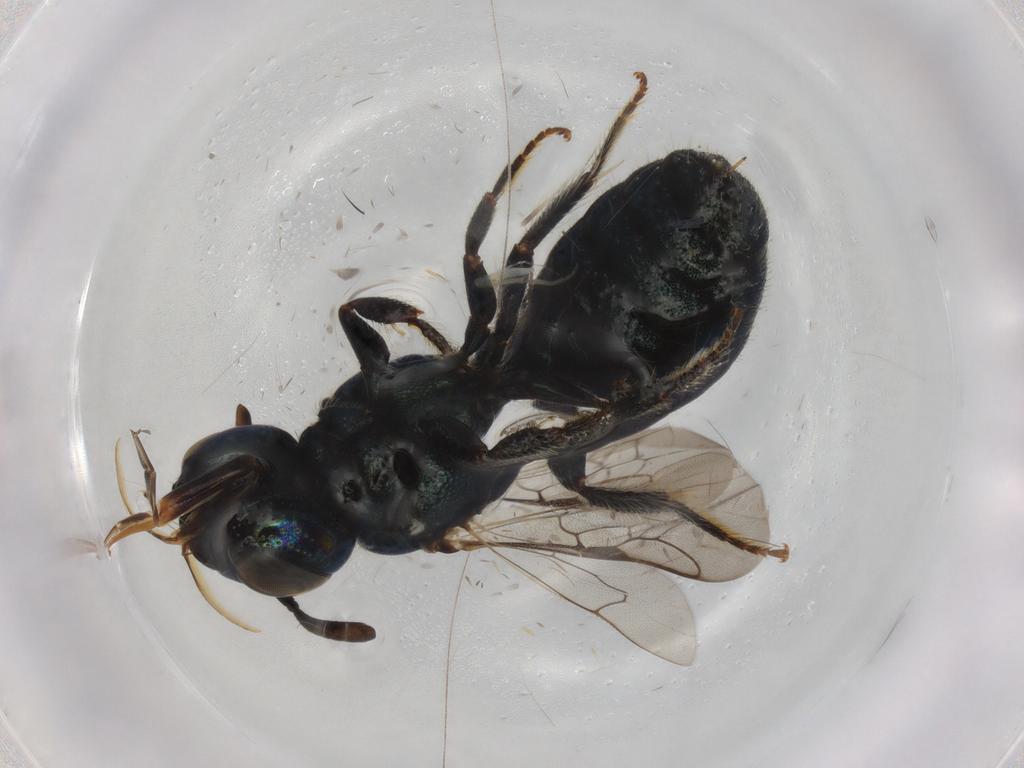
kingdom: Animalia
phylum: Arthropoda
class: Insecta
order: Hymenoptera
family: Apidae
